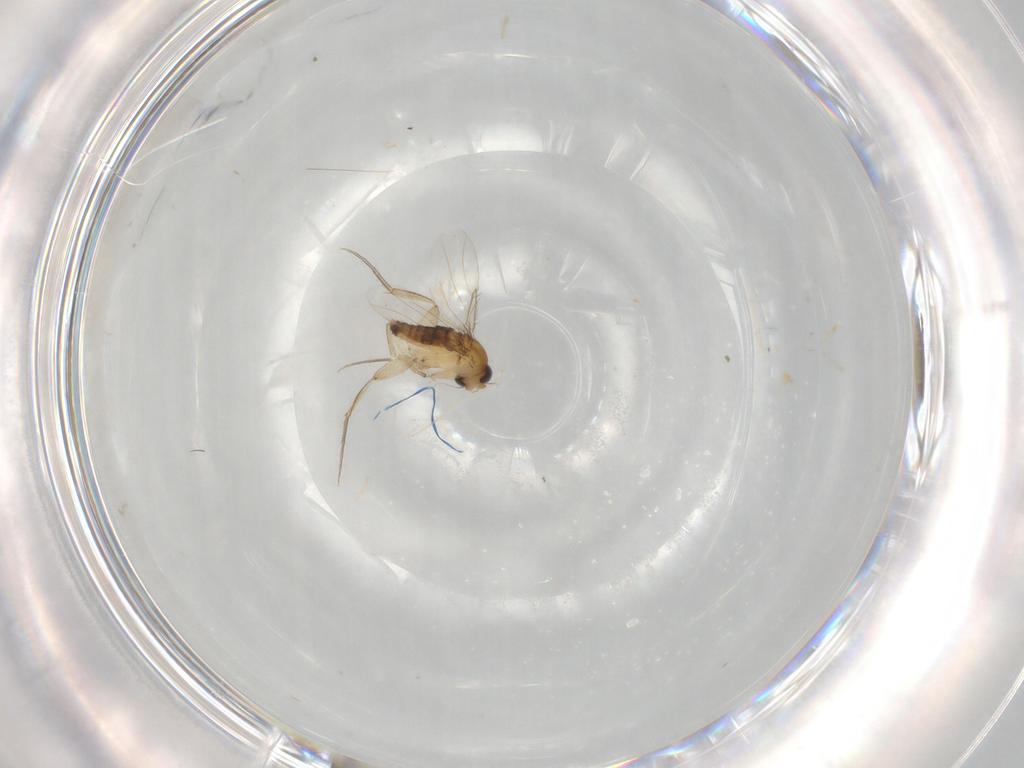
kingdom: Animalia
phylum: Arthropoda
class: Insecta
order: Diptera
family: Phoridae
